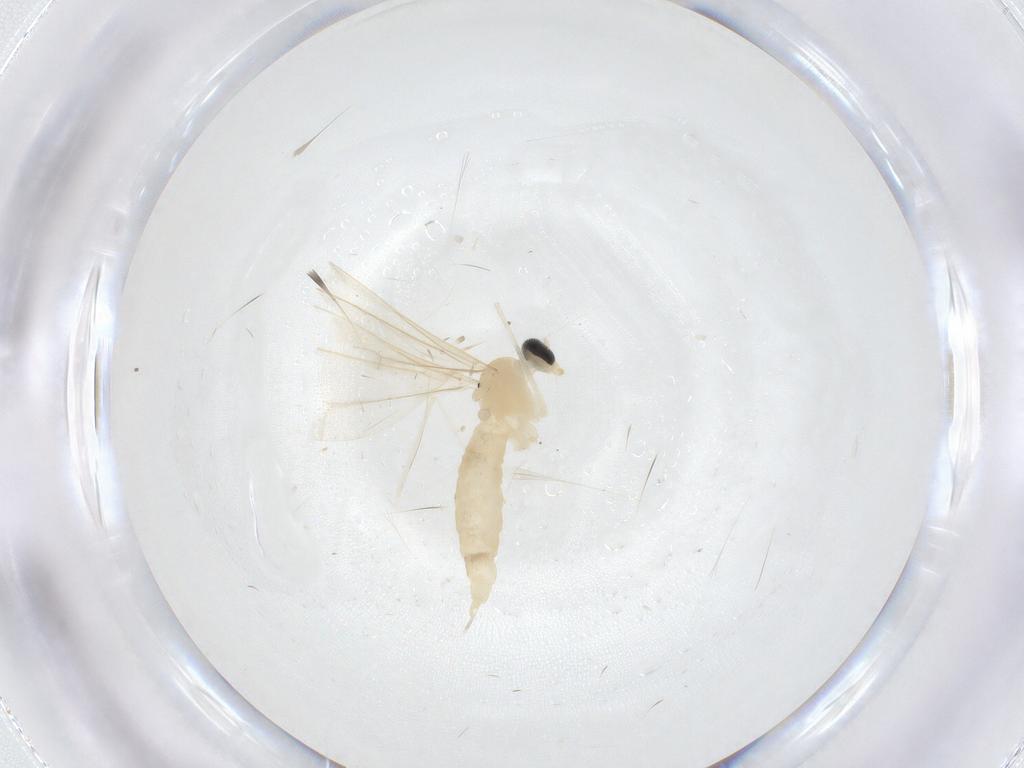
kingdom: Animalia
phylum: Arthropoda
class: Insecta
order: Diptera
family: Cecidomyiidae
